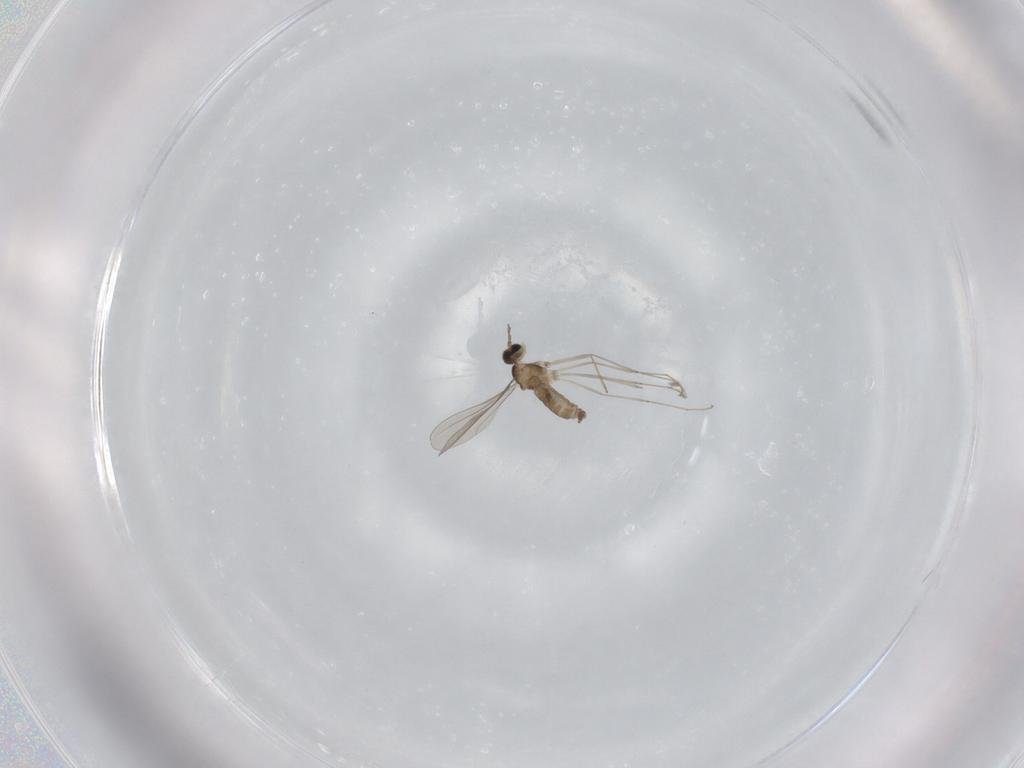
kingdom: Animalia
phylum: Arthropoda
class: Insecta
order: Diptera
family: Cecidomyiidae
